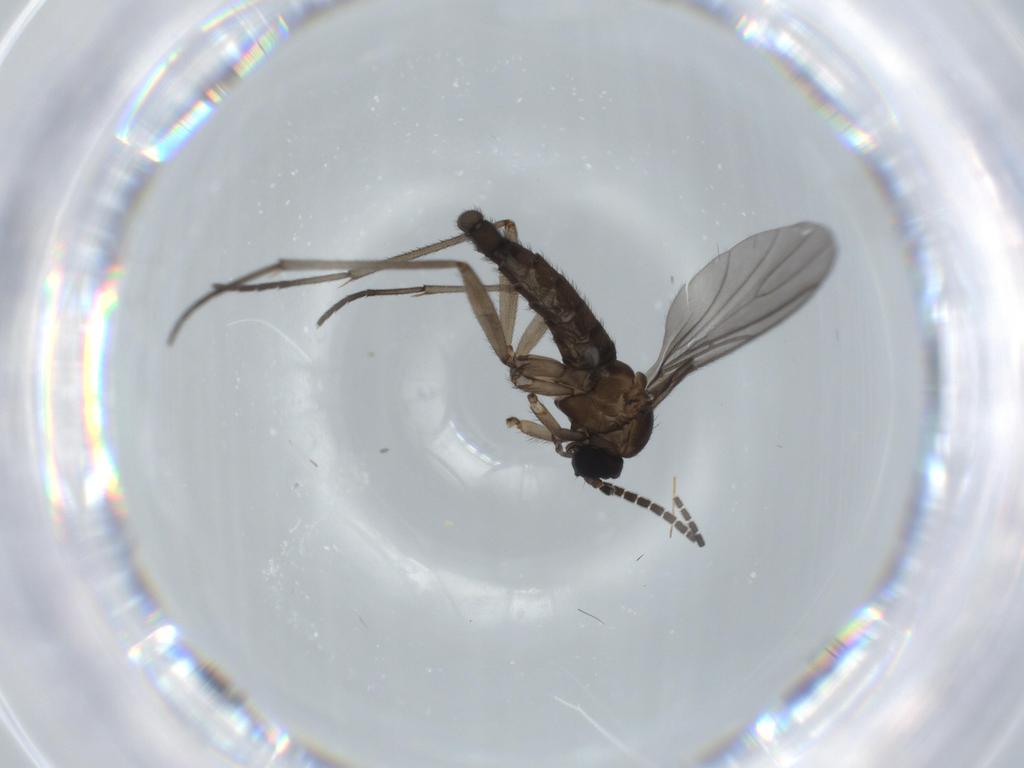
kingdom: Animalia
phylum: Arthropoda
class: Insecta
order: Diptera
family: Sciaridae
